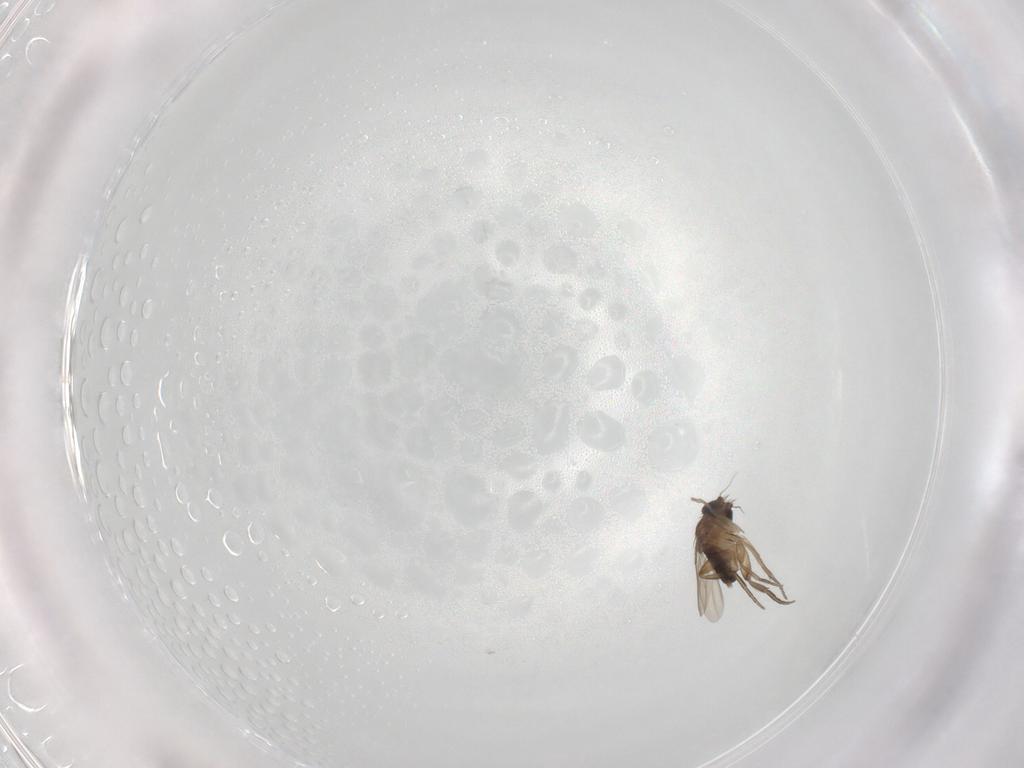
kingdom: Animalia
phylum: Arthropoda
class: Insecta
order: Diptera
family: Phoridae
